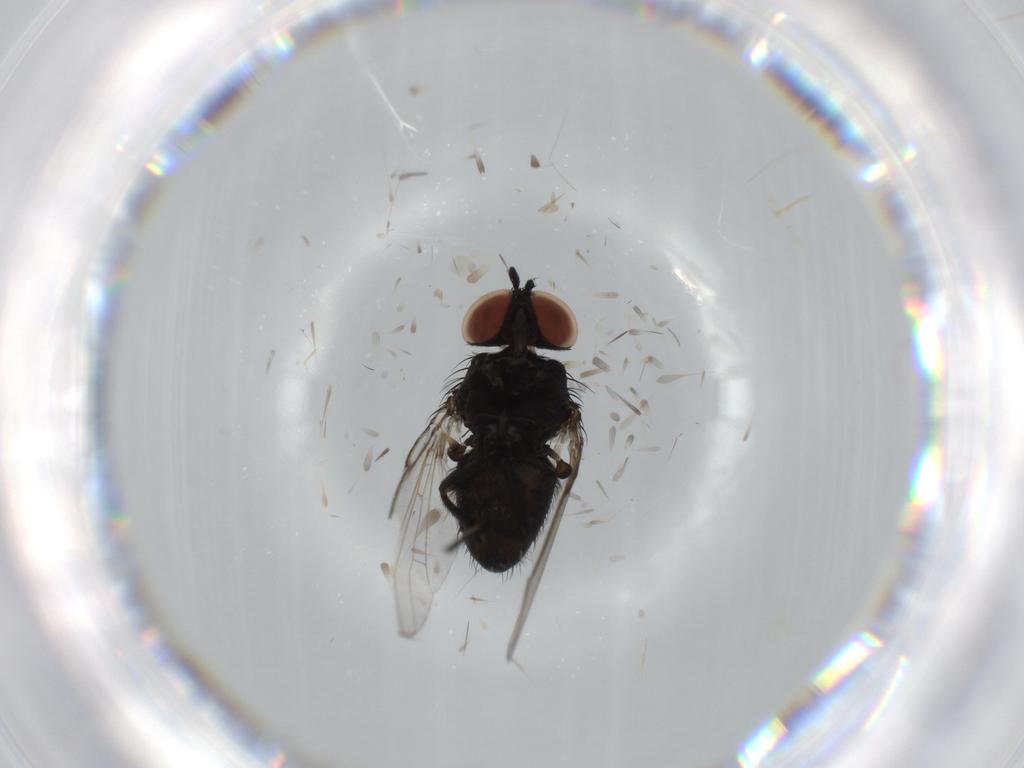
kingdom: Animalia
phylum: Arthropoda
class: Insecta
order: Diptera
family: Milichiidae
